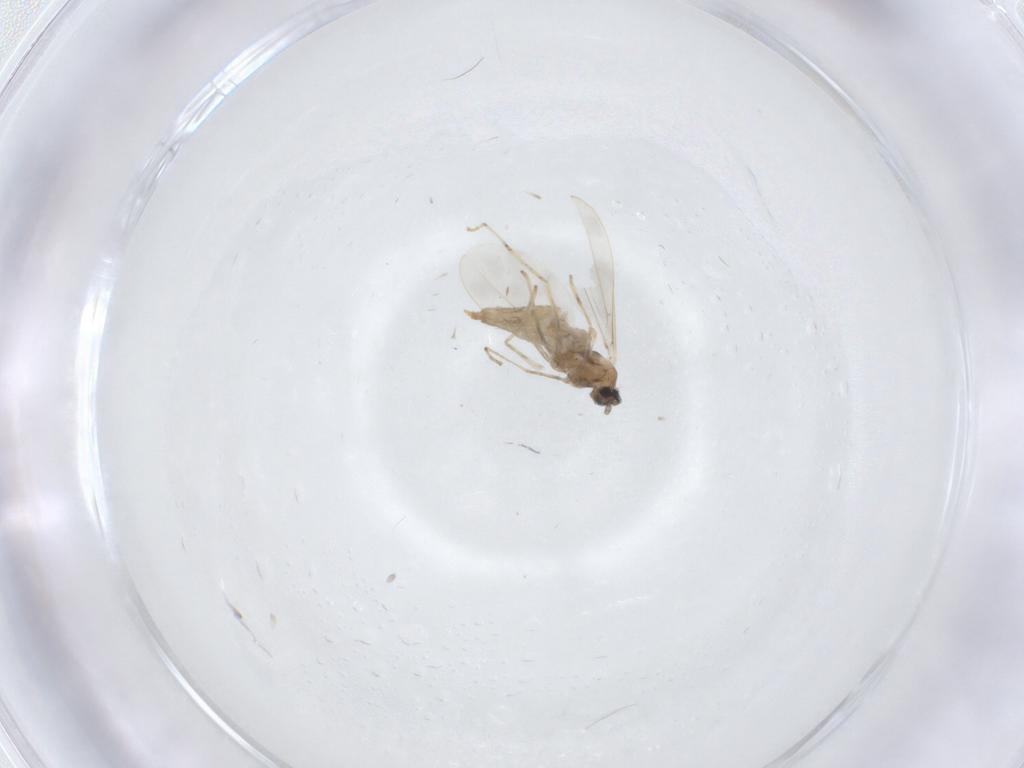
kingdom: Animalia
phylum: Arthropoda
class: Insecta
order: Diptera
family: Cecidomyiidae
